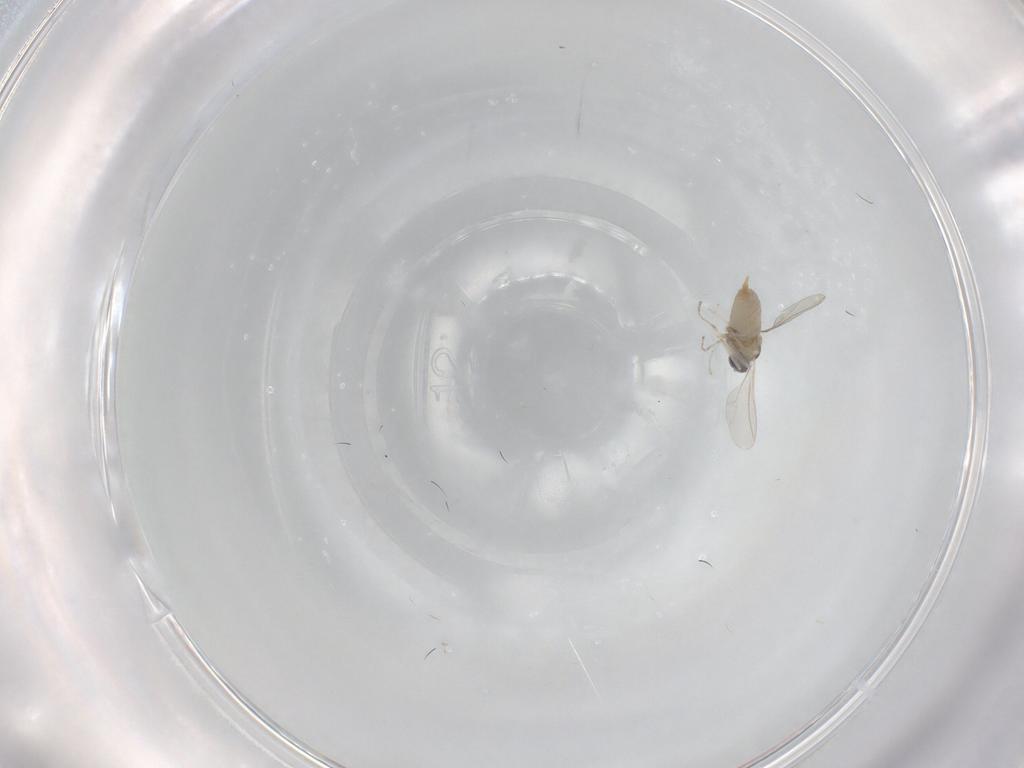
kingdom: Animalia
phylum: Arthropoda
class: Insecta
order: Diptera
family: Cecidomyiidae
